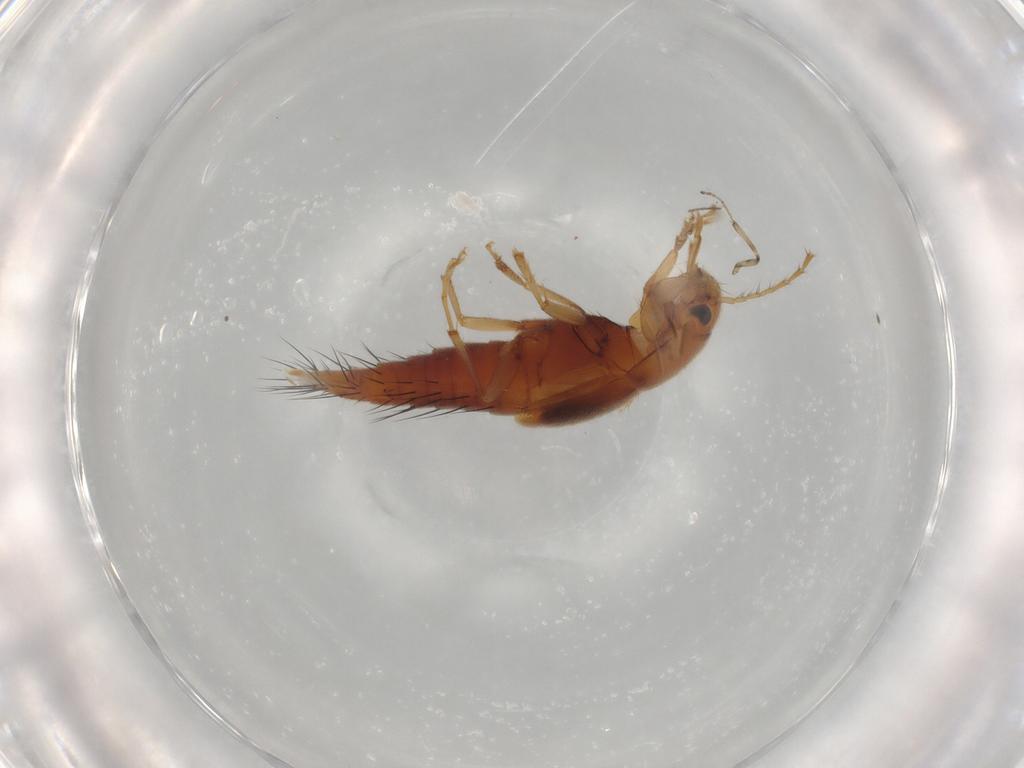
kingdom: Animalia
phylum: Arthropoda
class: Insecta
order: Coleoptera
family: Staphylinidae
